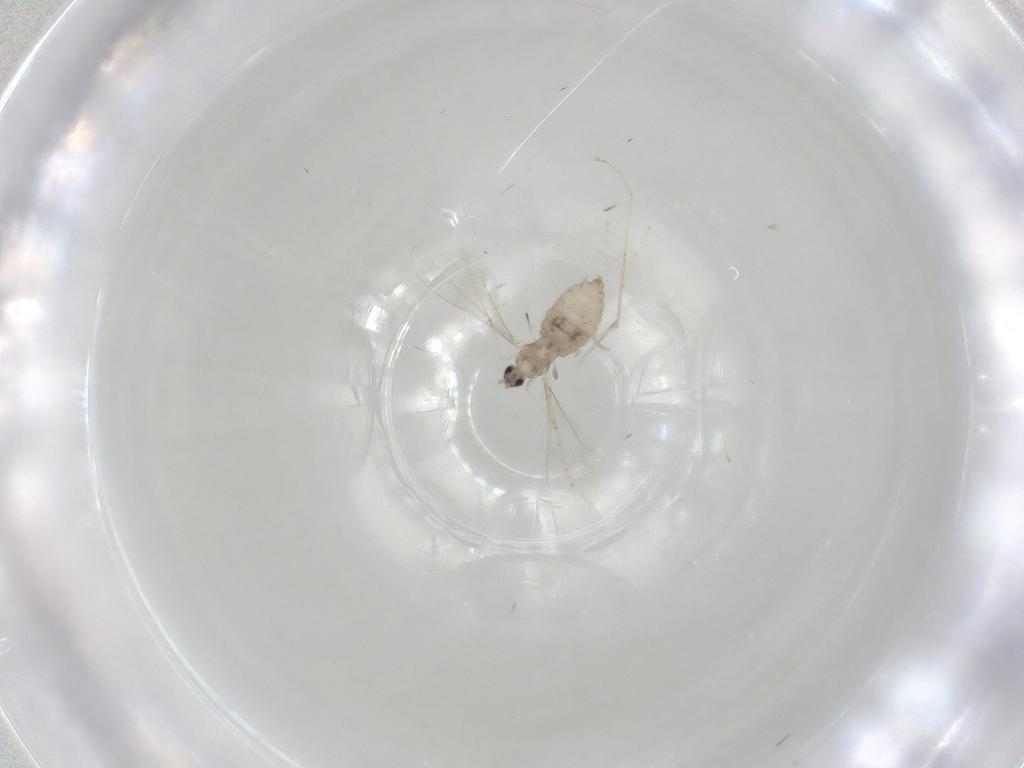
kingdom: Animalia
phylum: Arthropoda
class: Insecta
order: Diptera
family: Cecidomyiidae
